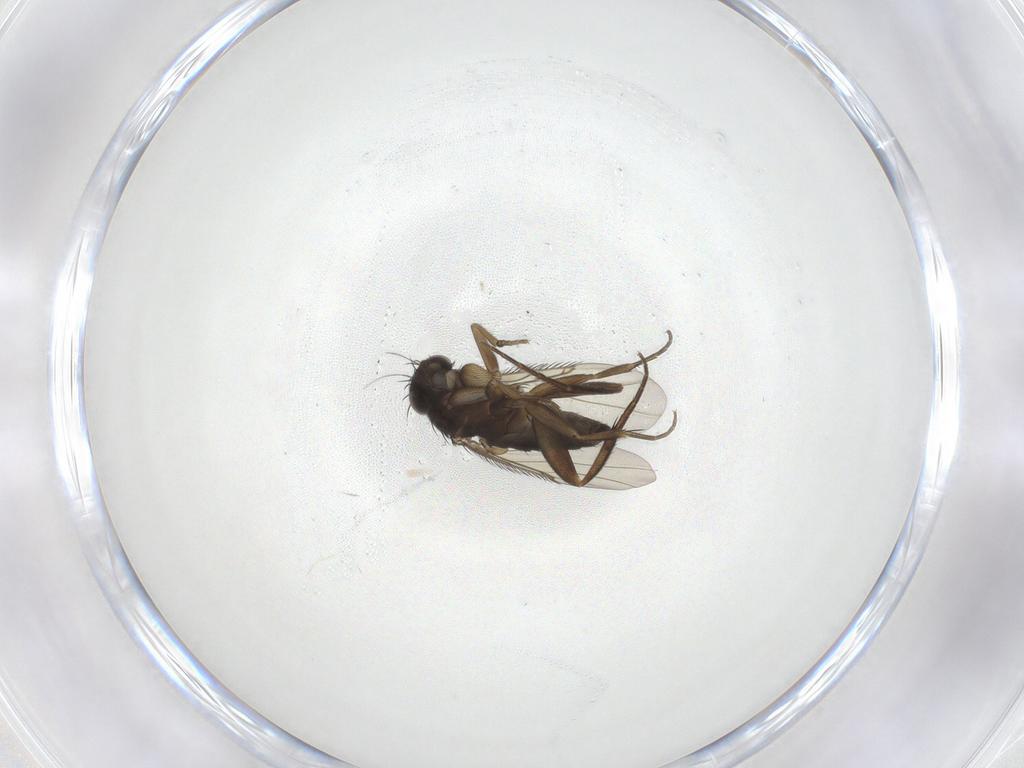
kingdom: Animalia
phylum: Arthropoda
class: Insecta
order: Diptera
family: Phoridae
